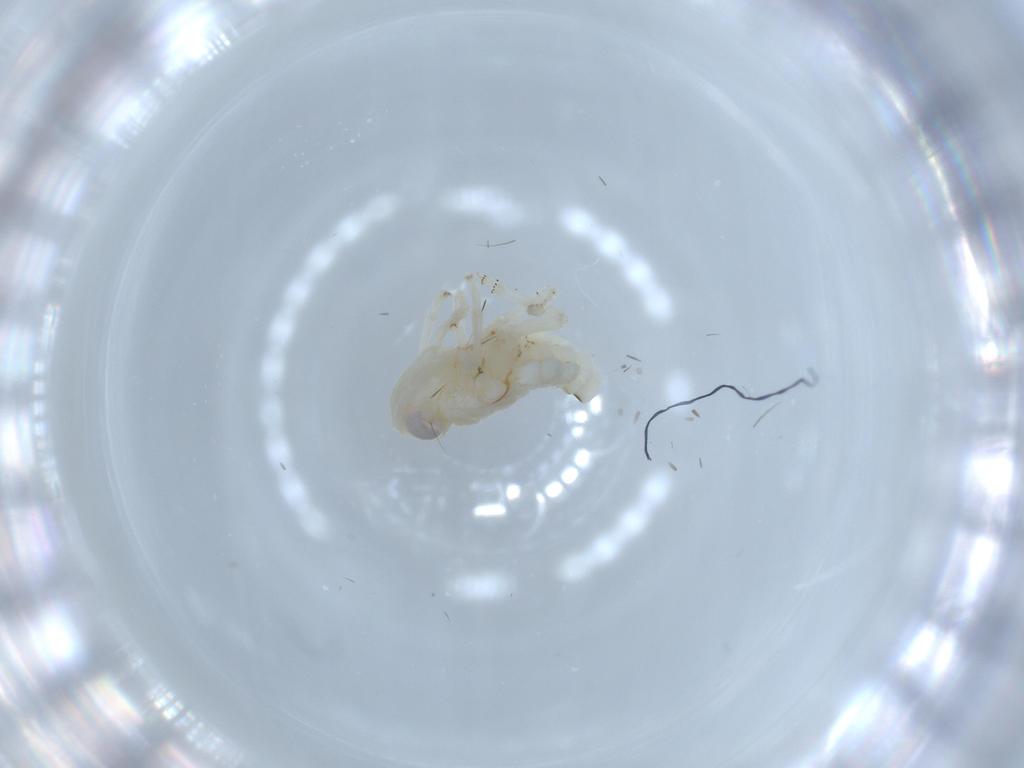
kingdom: Animalia
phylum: Arthropoda
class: Insecta
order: Hemiptera
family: Nogodinidae
